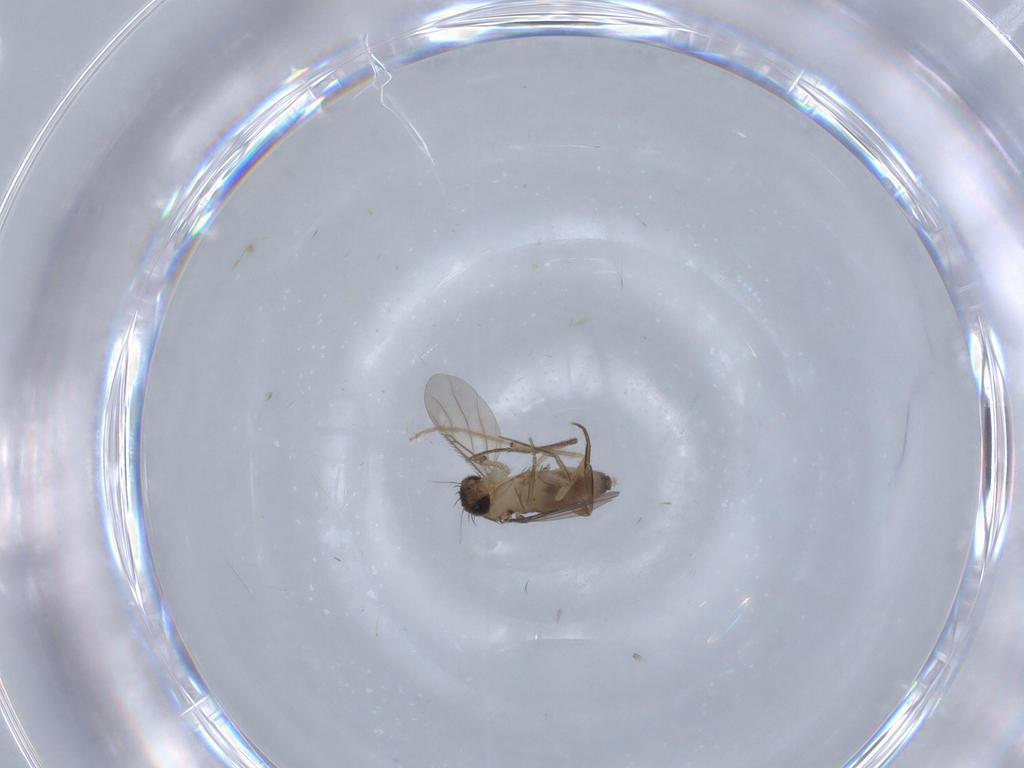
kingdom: Animalia
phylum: Arthropoda
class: Insecta
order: Diptera
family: Phoridae
